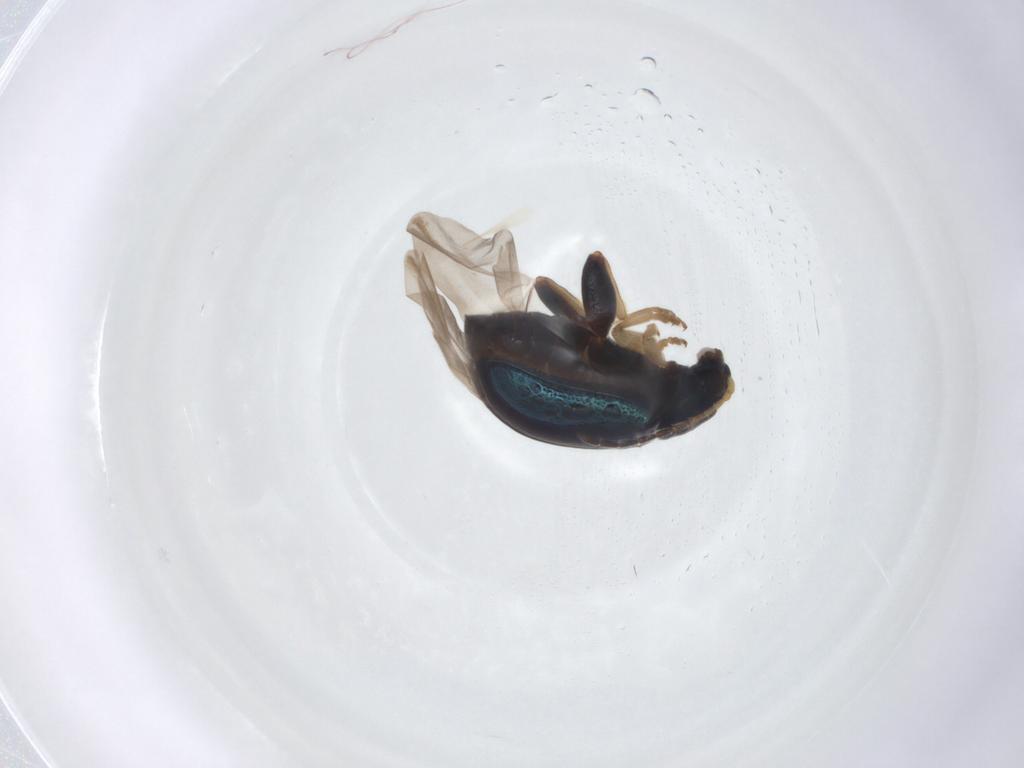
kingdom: Animalia
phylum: Arthropoda
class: Insecta
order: Coleoptera
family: Chrysomelidae
